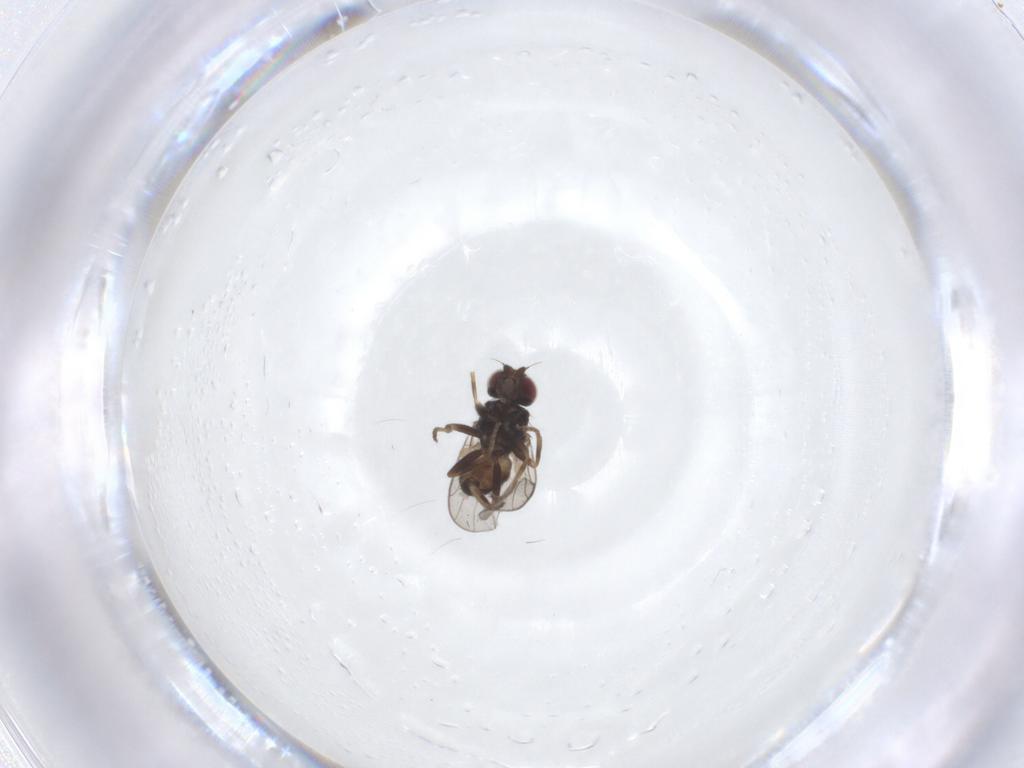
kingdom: Animalia
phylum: Arthropoda
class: Insecta
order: Diptera
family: Chloropidae
